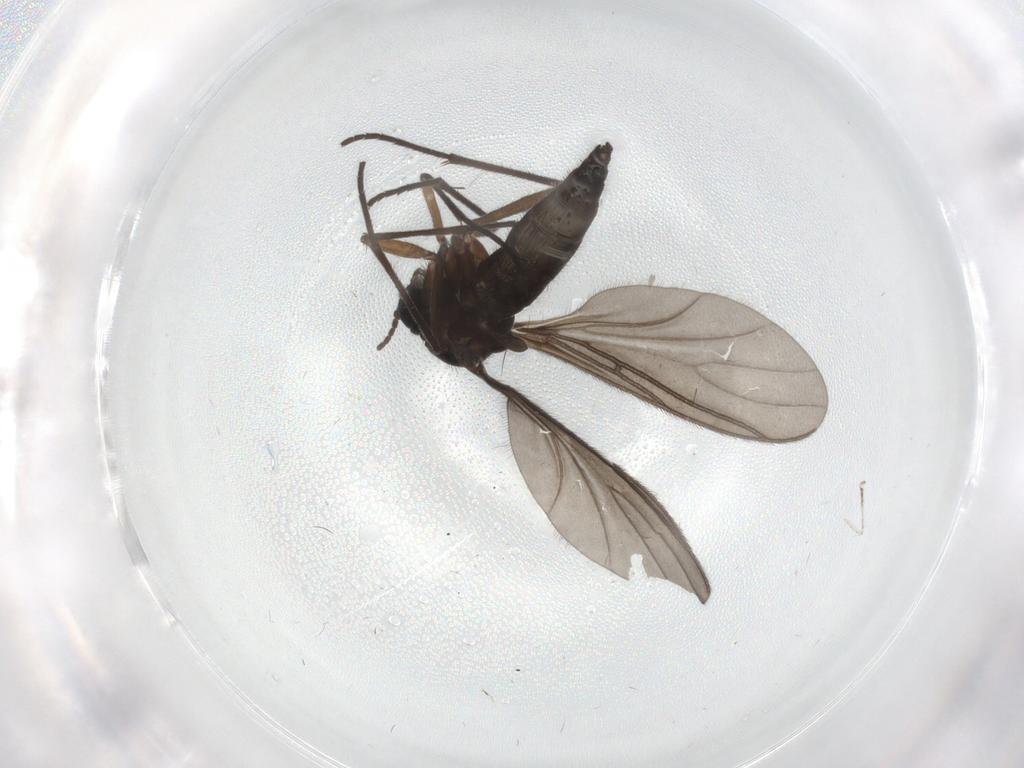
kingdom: Animalia
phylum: Arthropoda
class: Insecta
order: Diptera
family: Sciaridae
